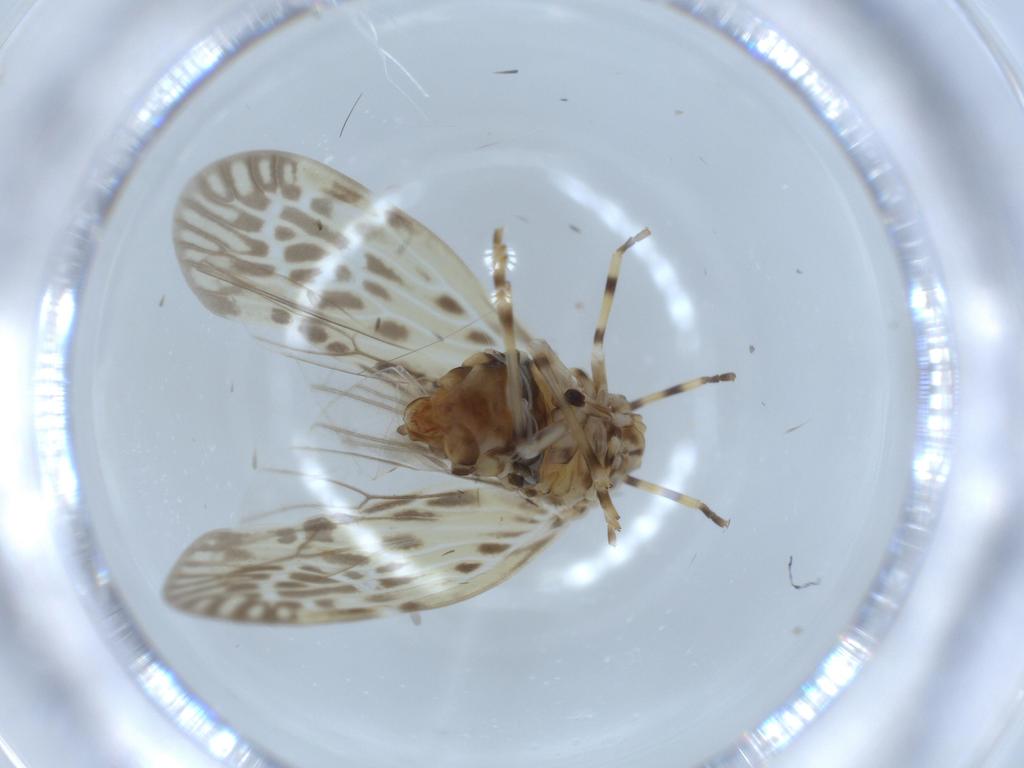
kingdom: Animalia
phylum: Arthropoda
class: Insecta
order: Hemiptera
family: Derbidae
